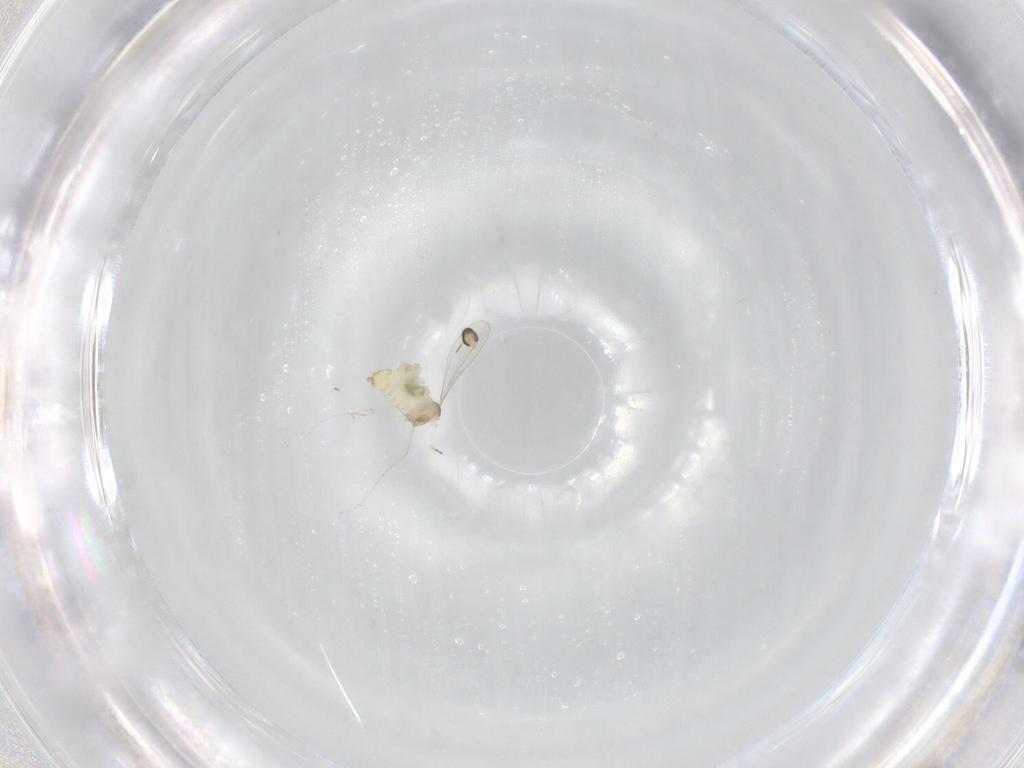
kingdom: Animalia
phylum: Arthropoda
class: Insecta
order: Diptera
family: Cecidomyiidae
